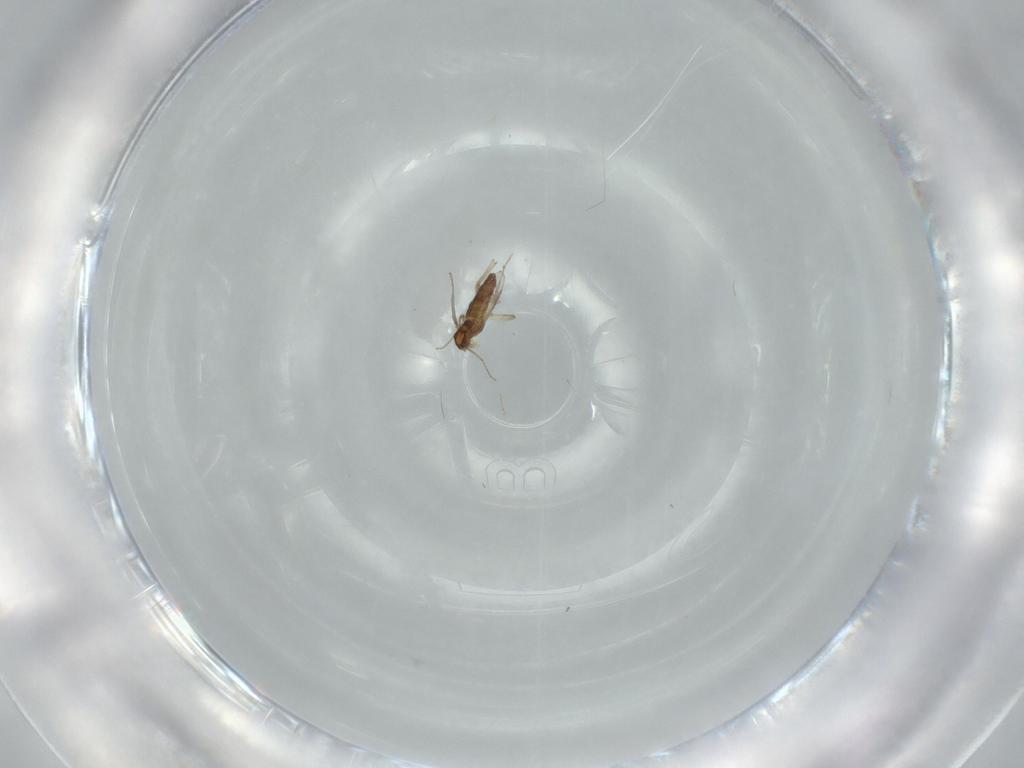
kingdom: Animalia
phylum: Arthropoda
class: Insecta
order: Diptera
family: Chironomidae
